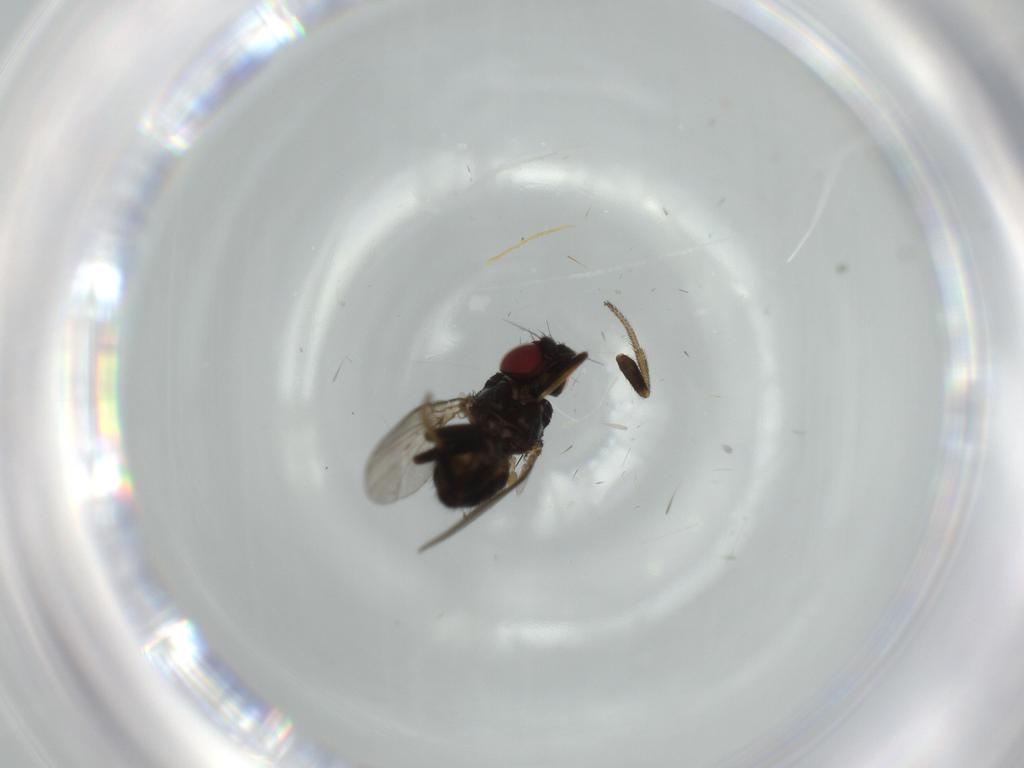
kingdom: Animalia
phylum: Arthropoda
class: Insecta
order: Diptera
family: Milichiidae
